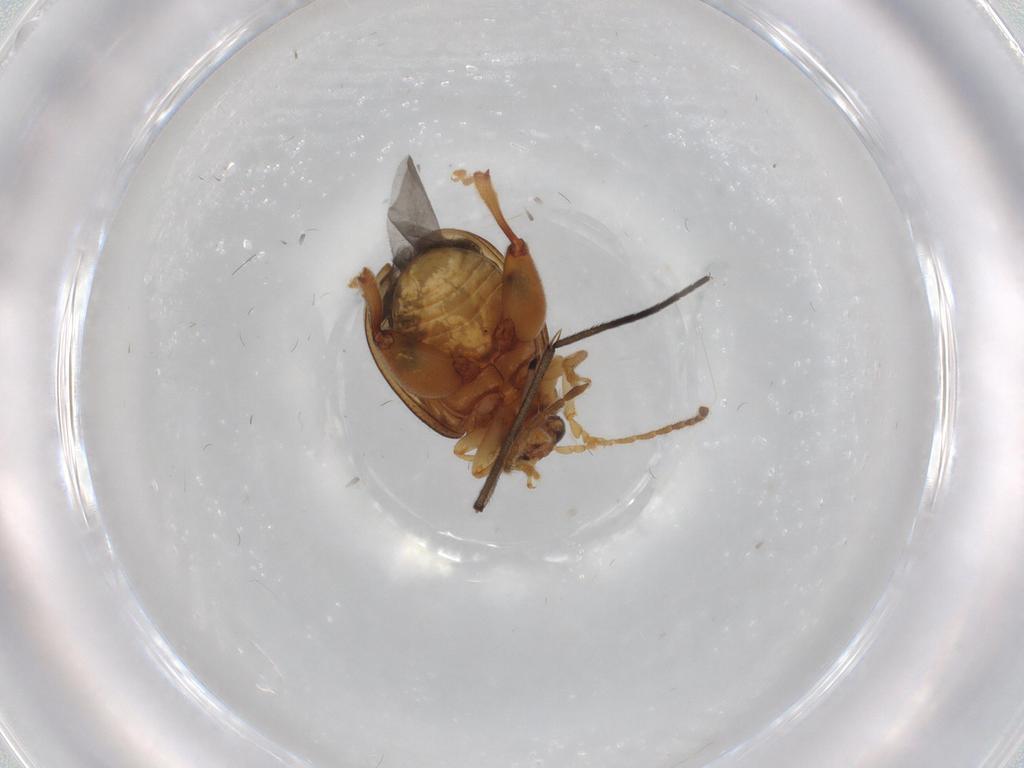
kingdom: Animalia
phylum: Arthropoda
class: Insecta
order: Coleoptera
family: Chrysomelidae
